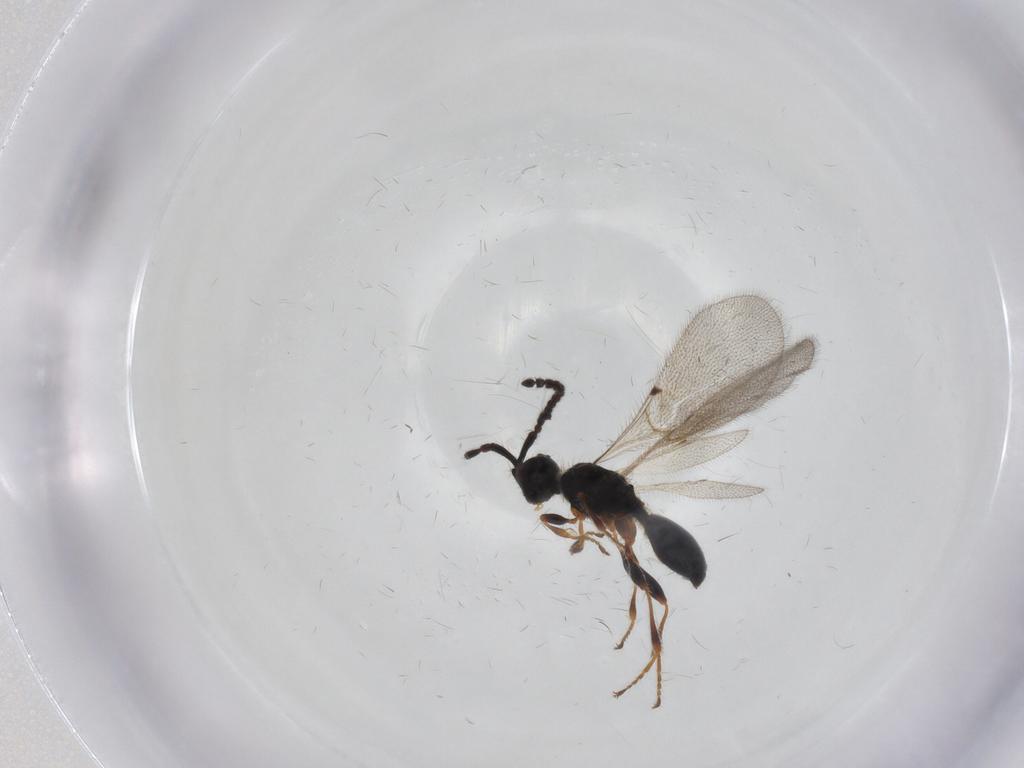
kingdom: Animalia
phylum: Arthropoda
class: Insecta
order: Hymenoptera
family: Diapriidae
